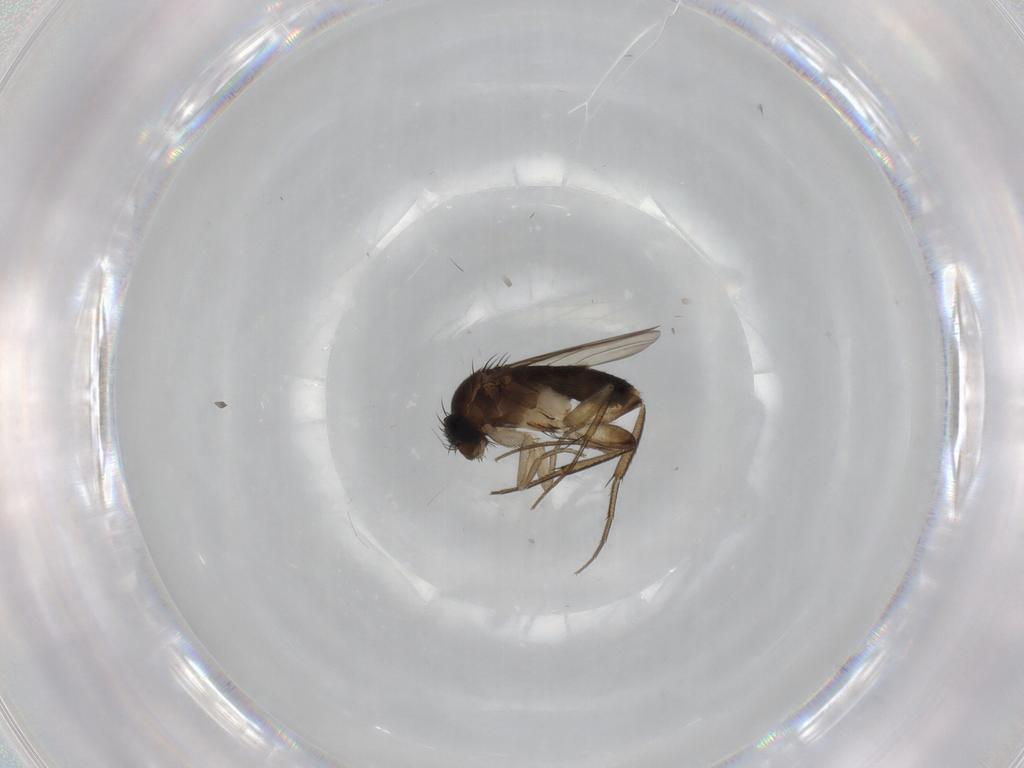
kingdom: Animalia
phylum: Arthropoda
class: Insecta
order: Diptera
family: Phoridae
